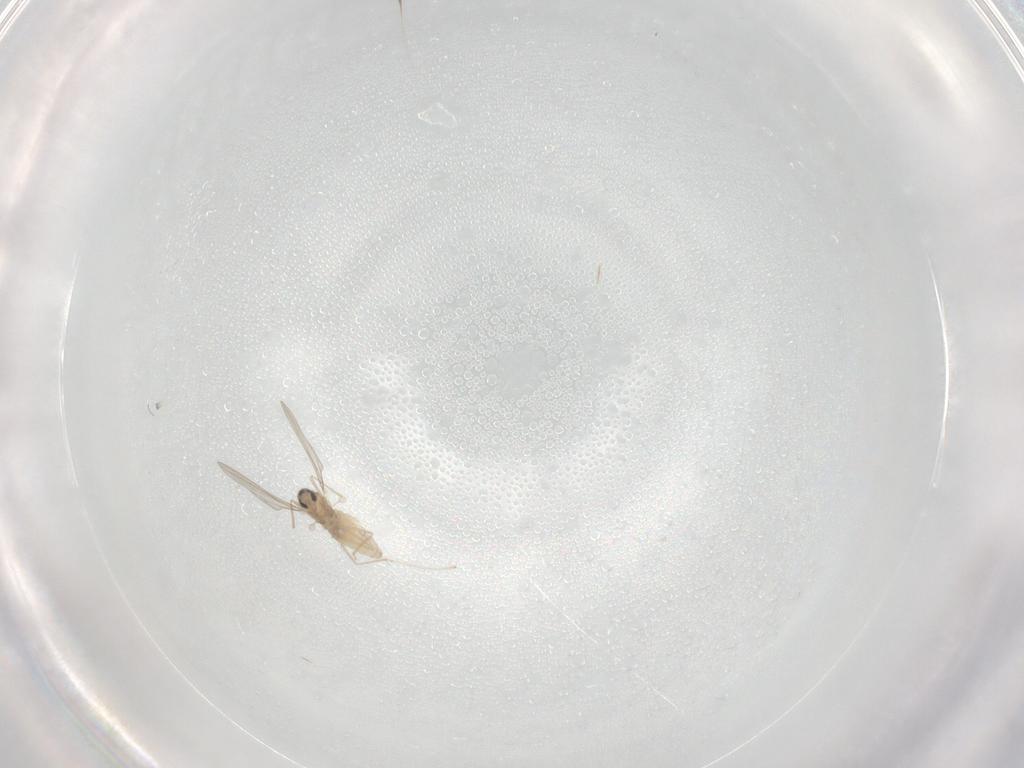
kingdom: Animalia
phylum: Arthropoda
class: Insecta
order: Diptera
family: Cecidomyiidae
